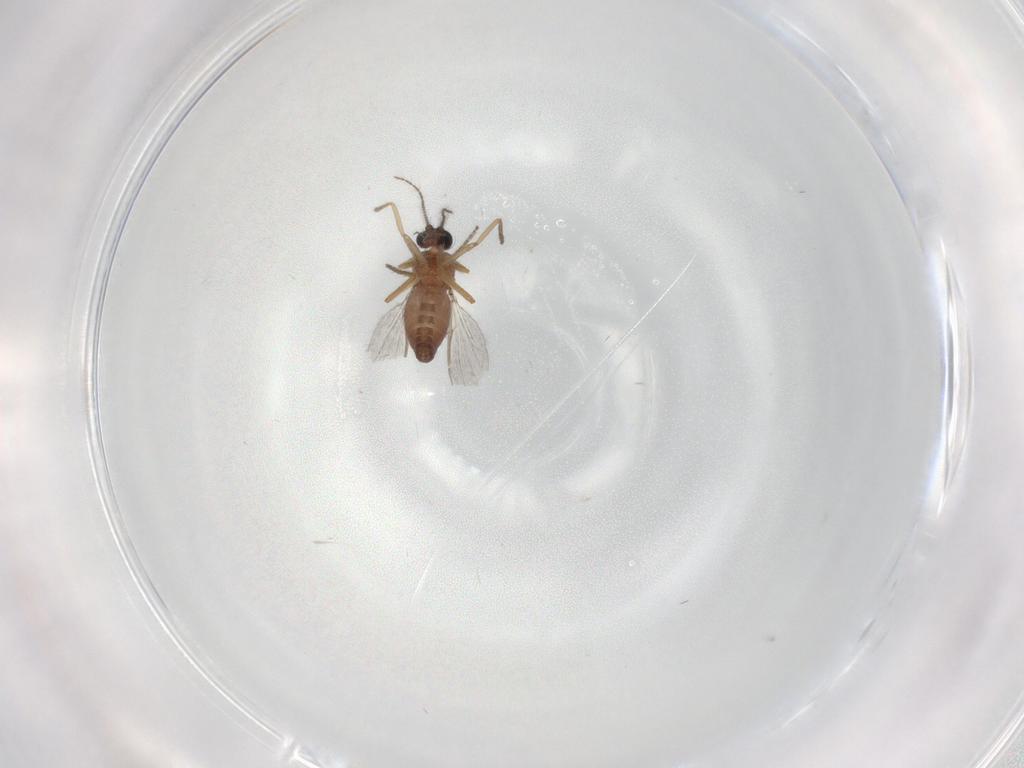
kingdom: Animalia
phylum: Arthropoda
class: Insecta
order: Diptera
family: Ceratopogonidae
